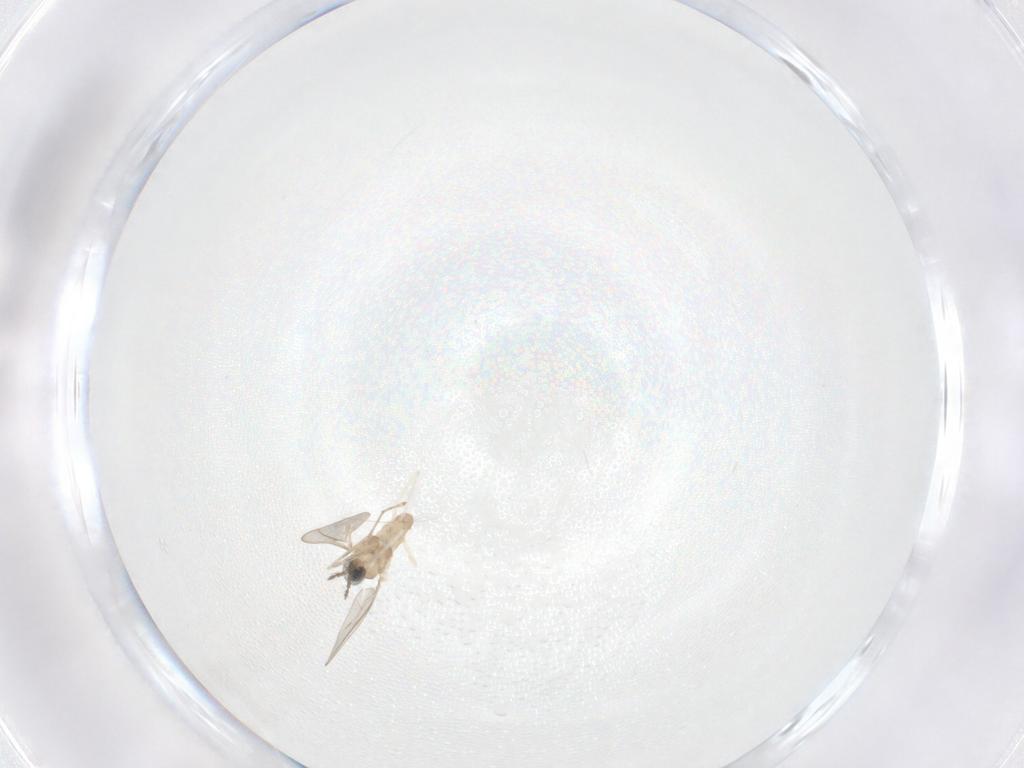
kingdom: Animalia
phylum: Arthropoda
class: Insecta
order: Diptera
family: Cecidomyiidae
